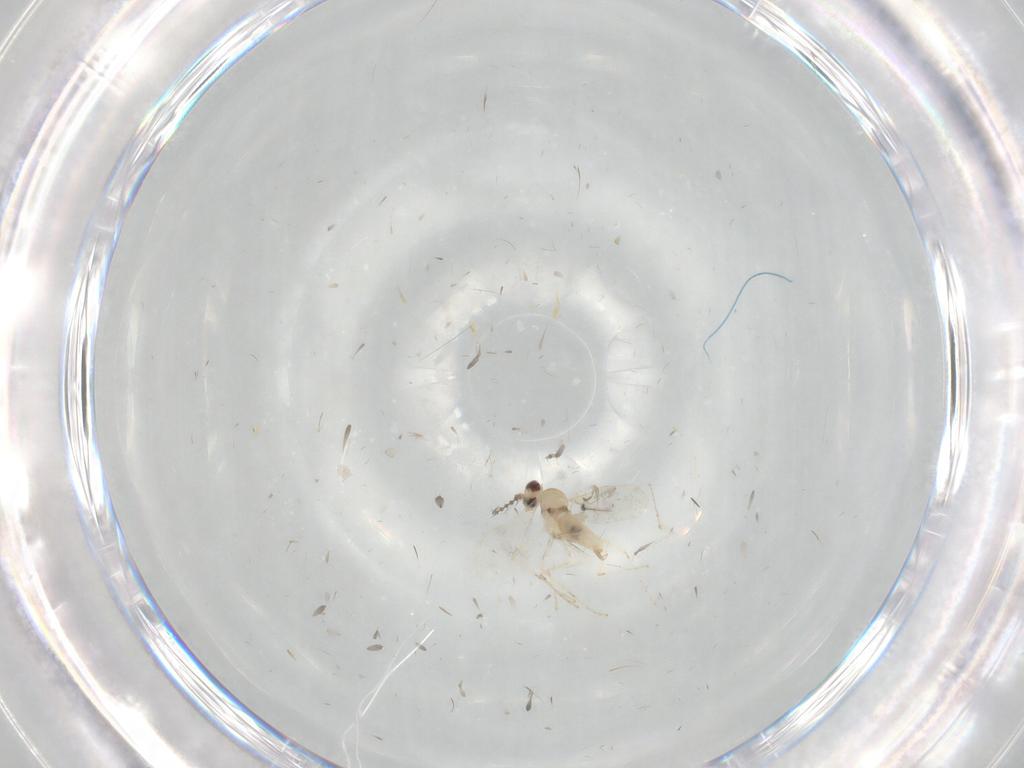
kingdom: Animalia
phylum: Arthropoda
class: Insecta
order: Diptera
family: Cecidomyiidae
